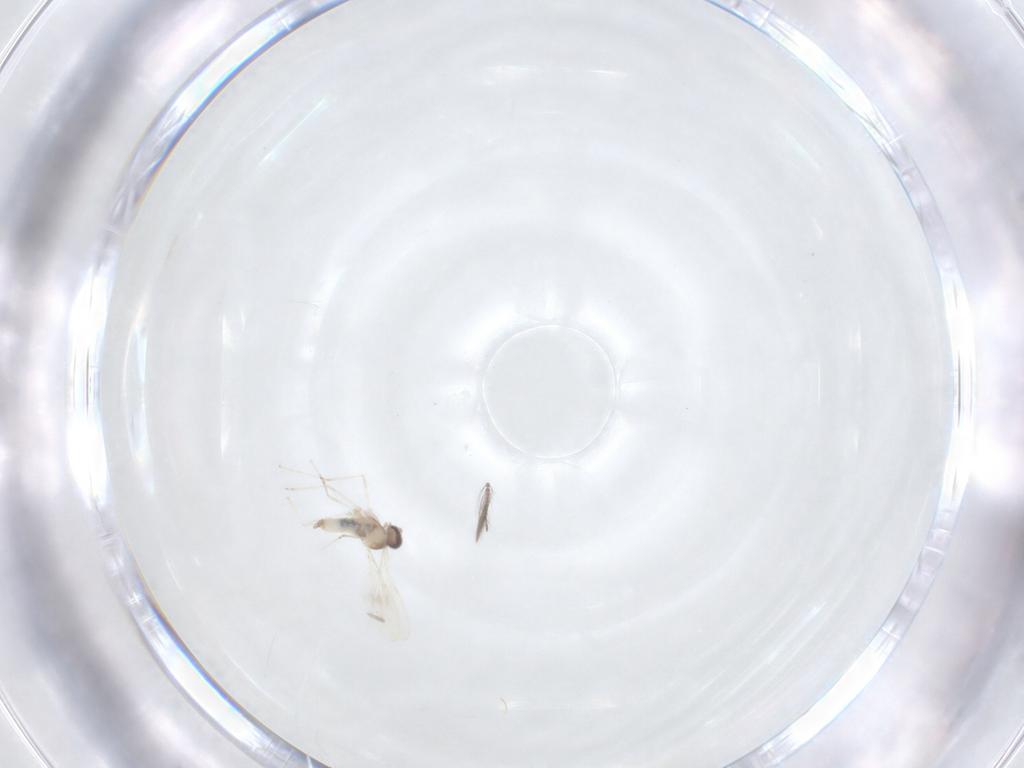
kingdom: Animalia
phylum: Arthropoda
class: Insecta
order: Diptera
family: Ceratopogonidae
